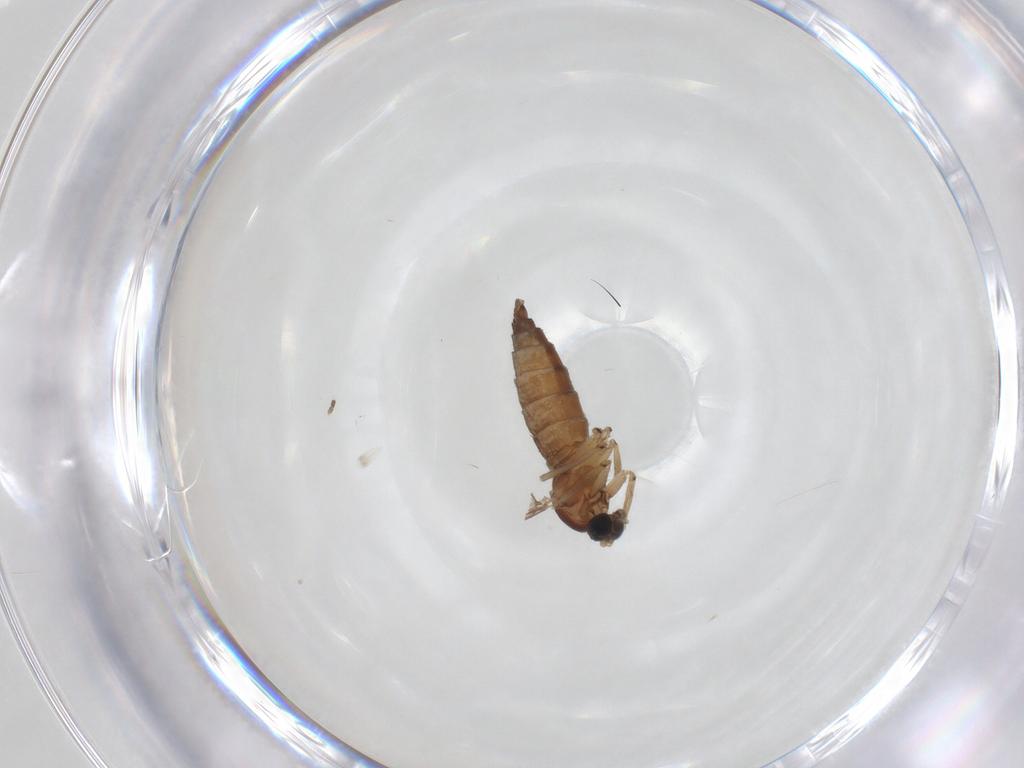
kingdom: Animalia
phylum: Arthropoda
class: Insecta
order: Diptera
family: Sciaridae
